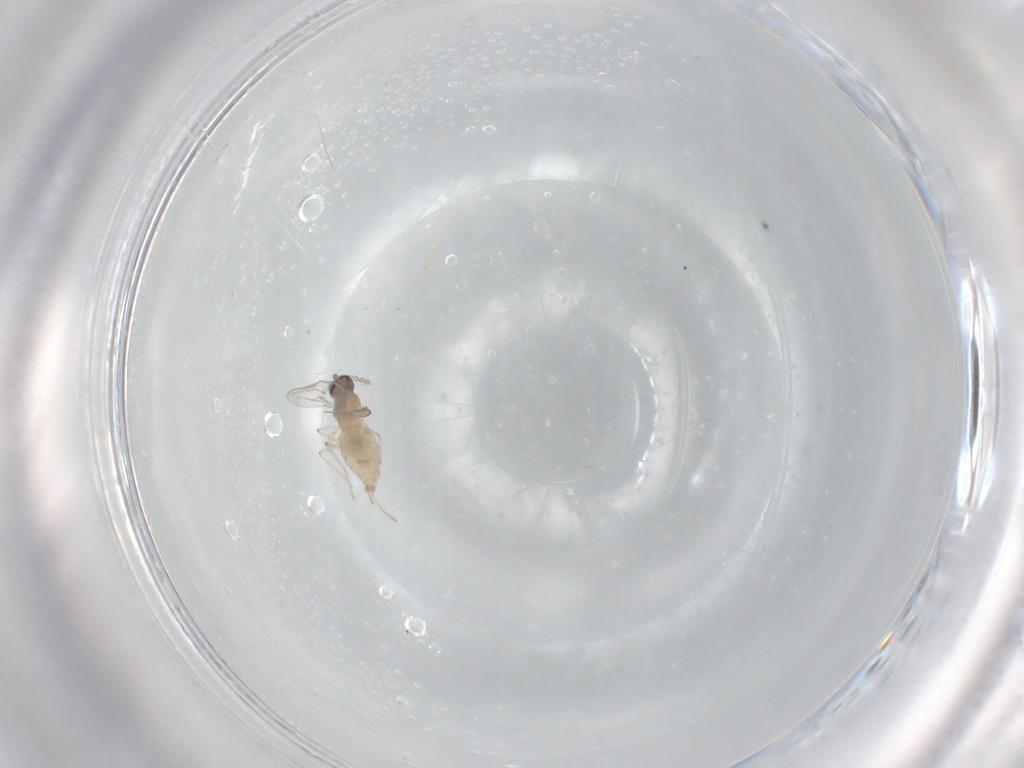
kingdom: Animalia
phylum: Arthropoda
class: Insecta
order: Diptera
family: Cecidomyiidae
